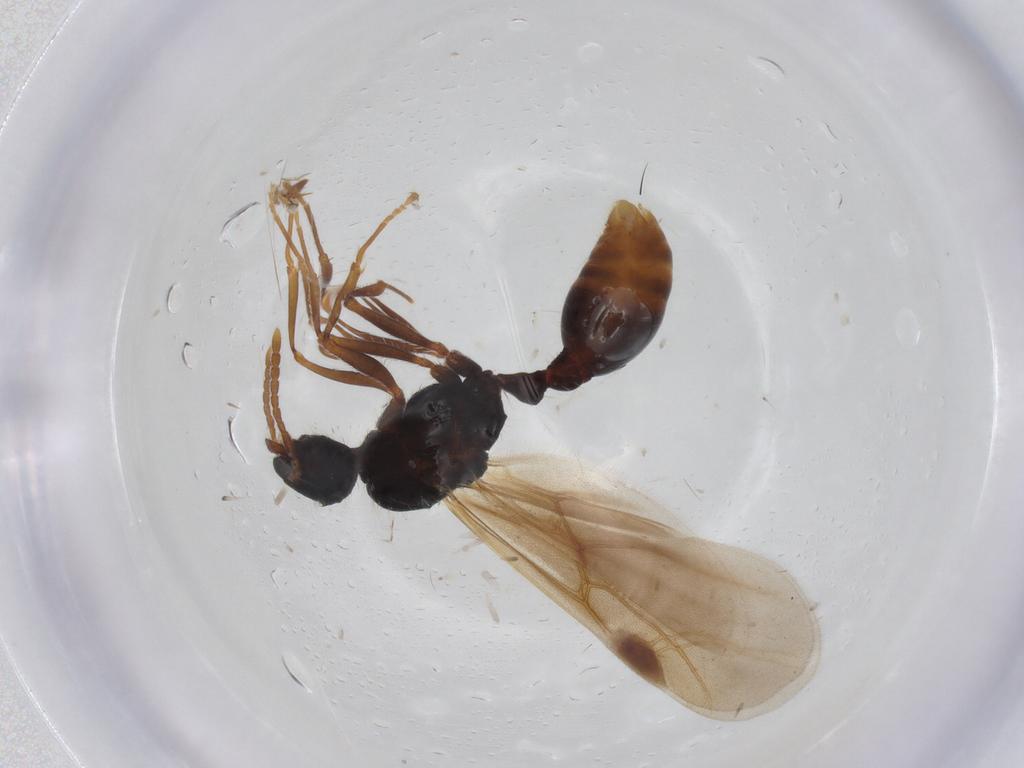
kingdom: Animalia
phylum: Arthropoda
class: Insecta
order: Hymenoptera
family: Formicidae
